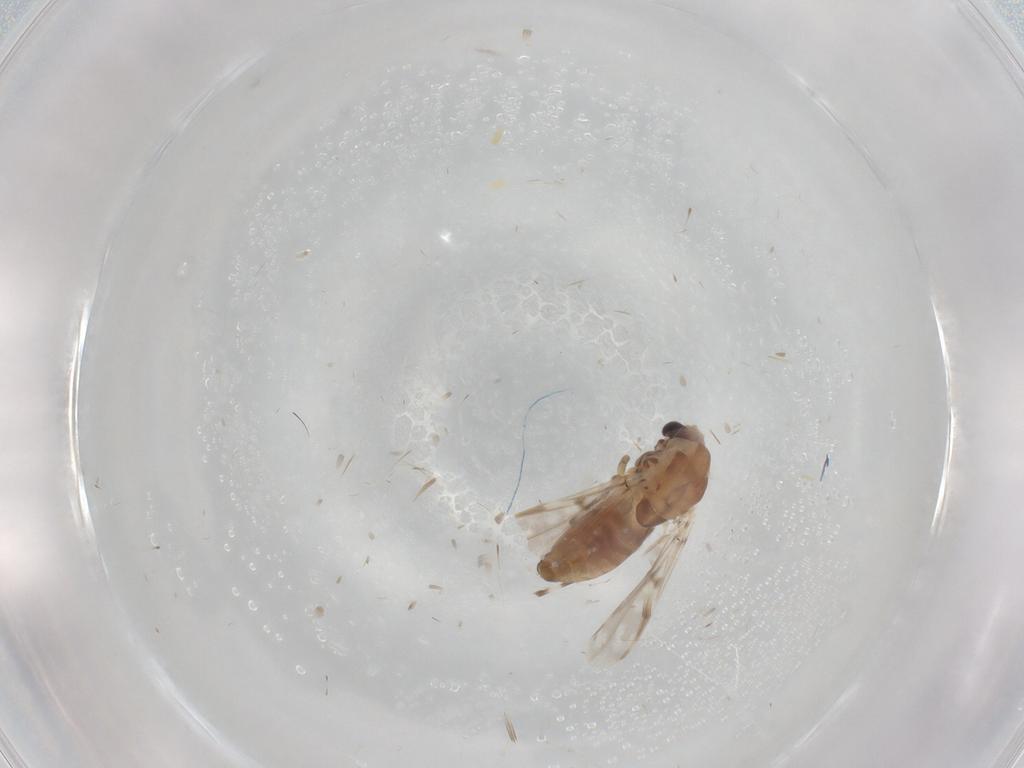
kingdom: Animalia
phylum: Arthropoda
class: Insecta
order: Diptera
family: Chironomidae
